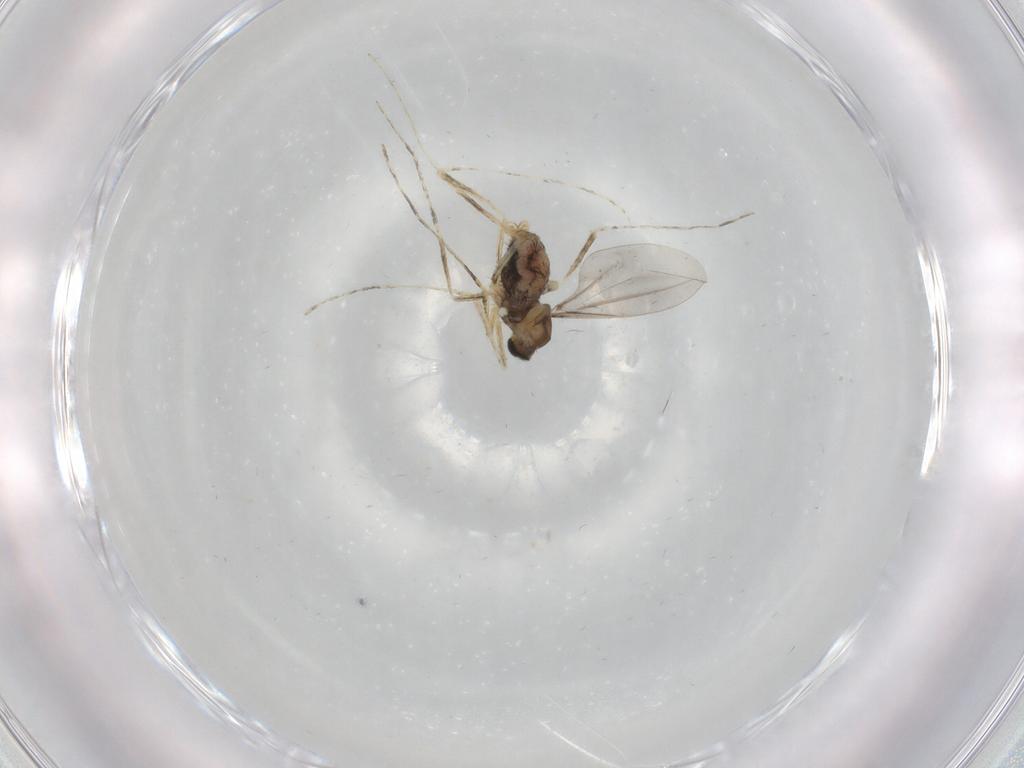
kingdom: Animalia
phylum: Arthropoda
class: Insecta
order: Diptera
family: Cecidomyiidae
